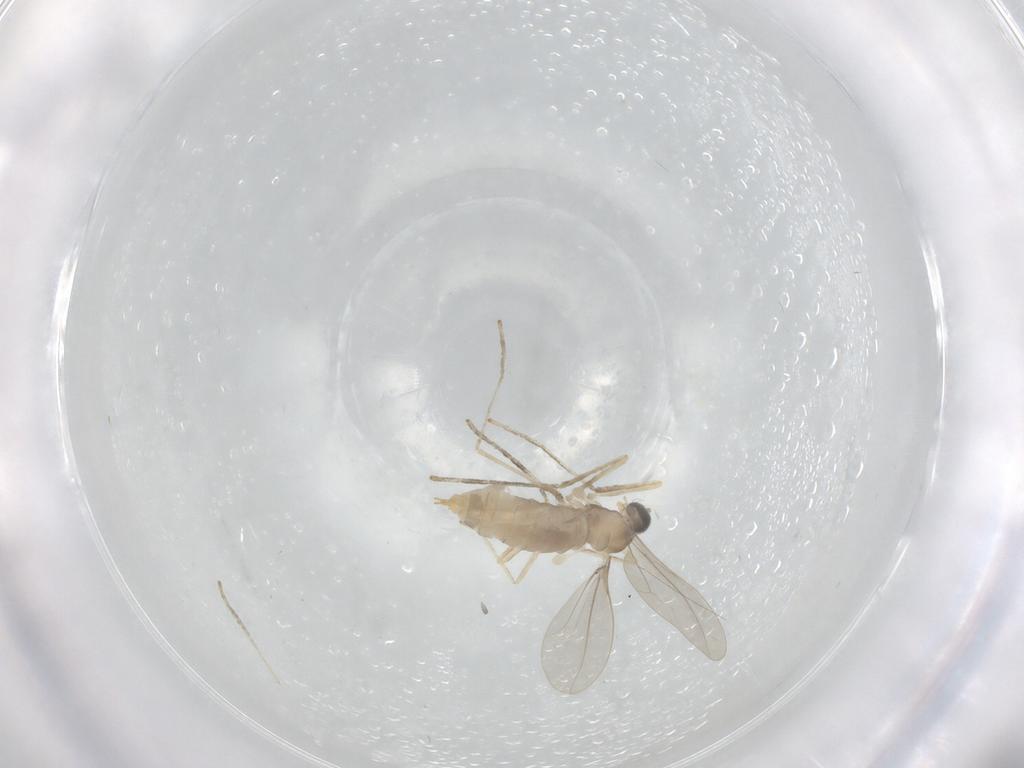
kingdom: Animalia
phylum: Arthropoda
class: Insecta
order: Diptera
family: Cecidomyiidae
